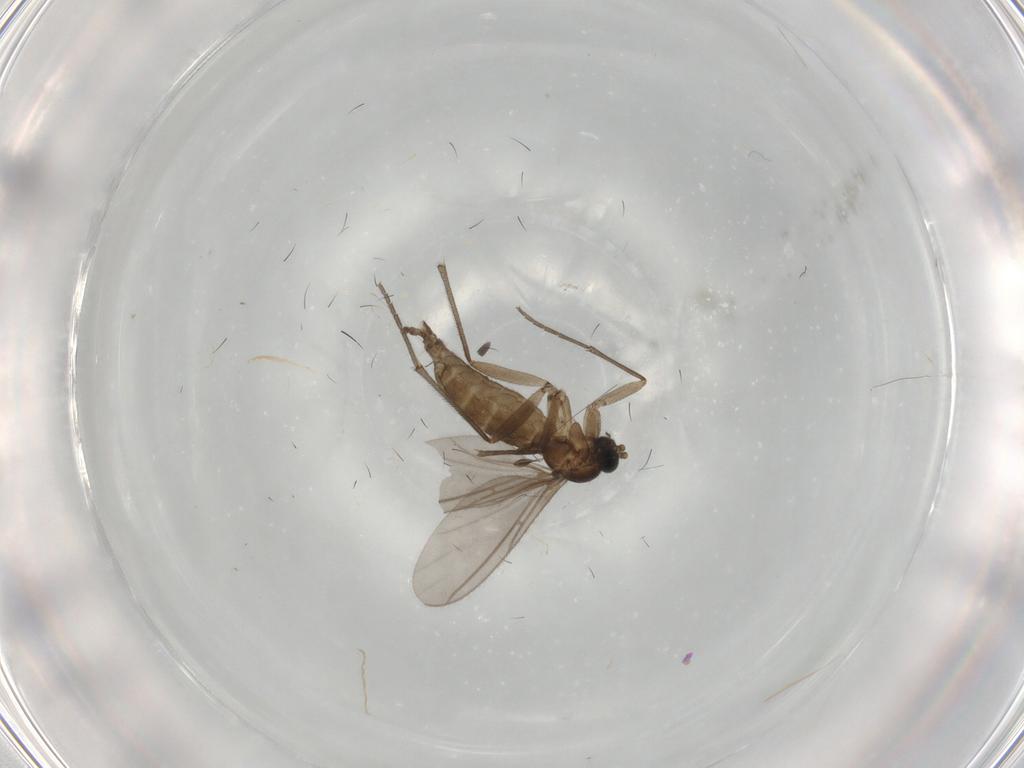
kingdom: Animalia
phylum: Arthropoda
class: Insecta
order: Diptera
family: Sciaridae
